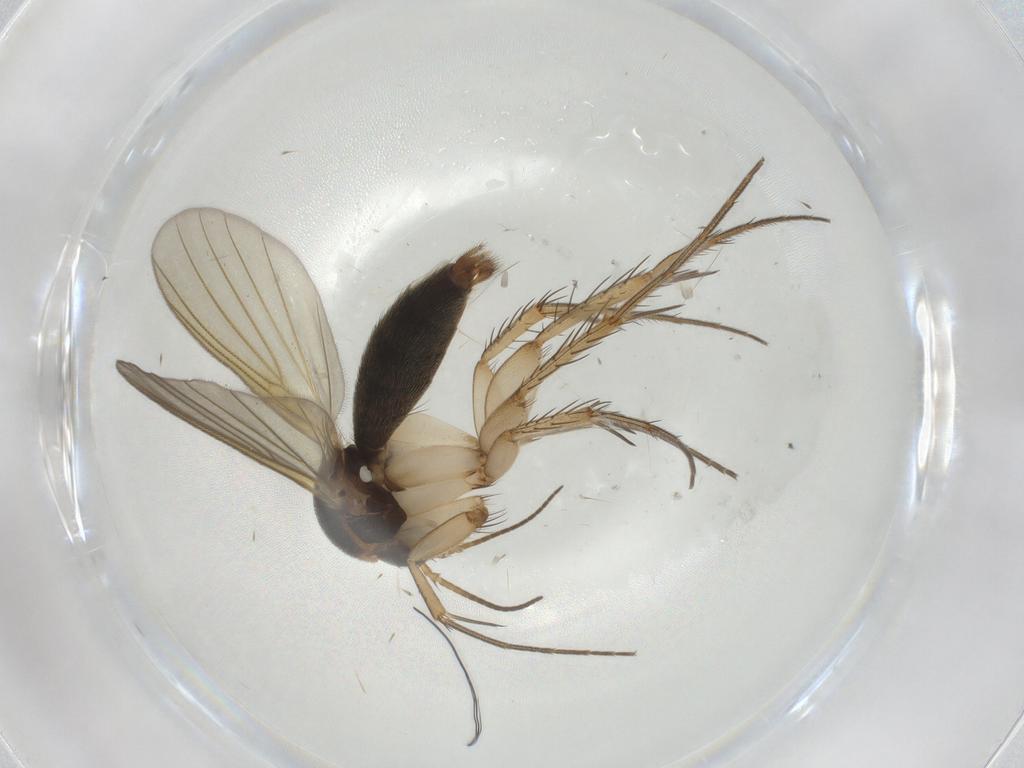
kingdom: Animalia
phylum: Arthropoda
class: Insecta
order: Diptera
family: Mycetophilidae
